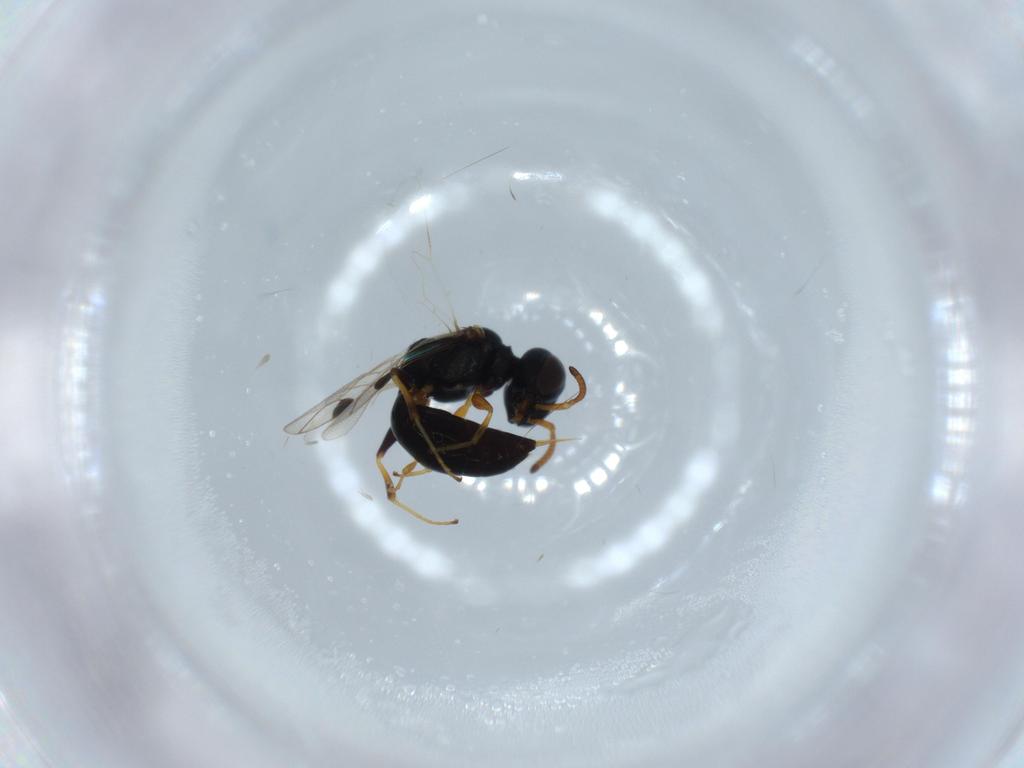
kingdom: Animalia
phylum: Arthropoda
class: Insecta
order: Hymenoptera
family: Pemphredonidae
